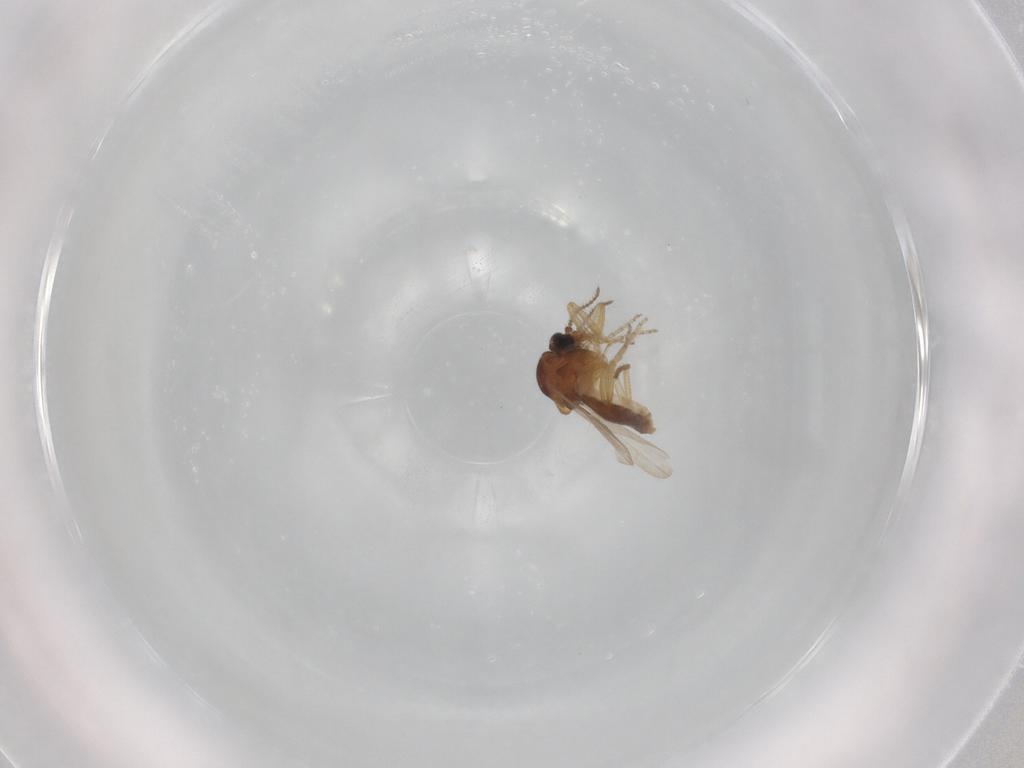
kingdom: Animalia
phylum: Arthropoda
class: Insecta
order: Diptera
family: Ceratopogonidae
